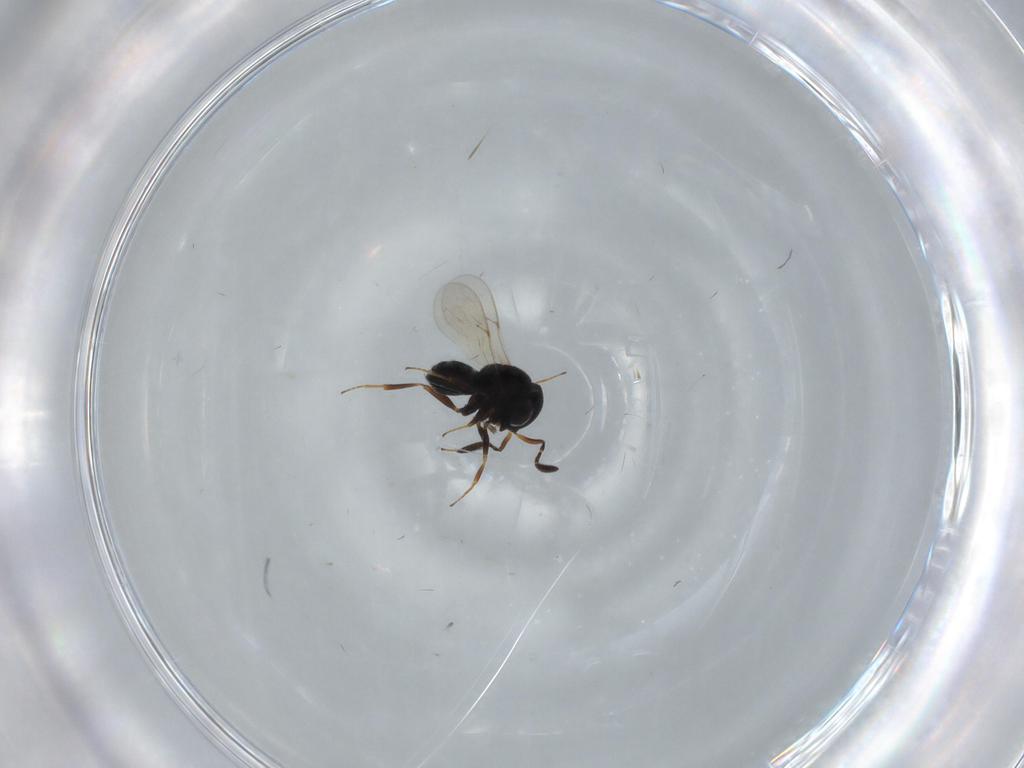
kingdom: Animalia
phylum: Arthropoda
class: Insecta
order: Hymenoptera
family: Scelionidae
